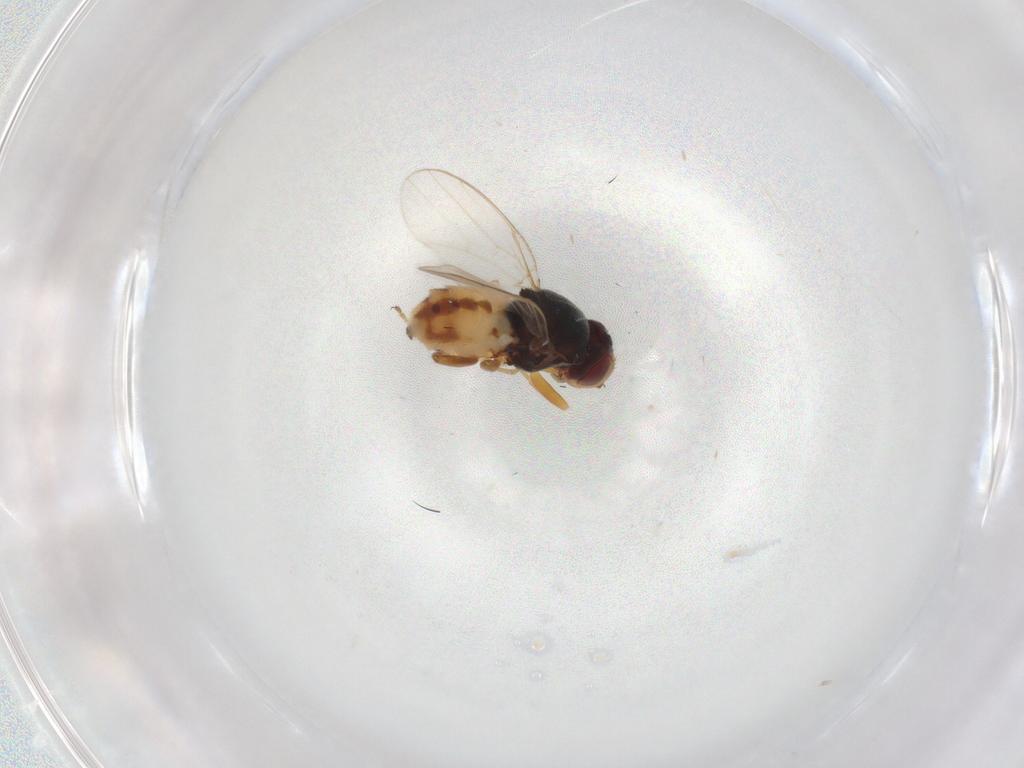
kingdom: Animalia
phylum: Arthropoda
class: Insecta
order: Diptera
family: Chloropidae
